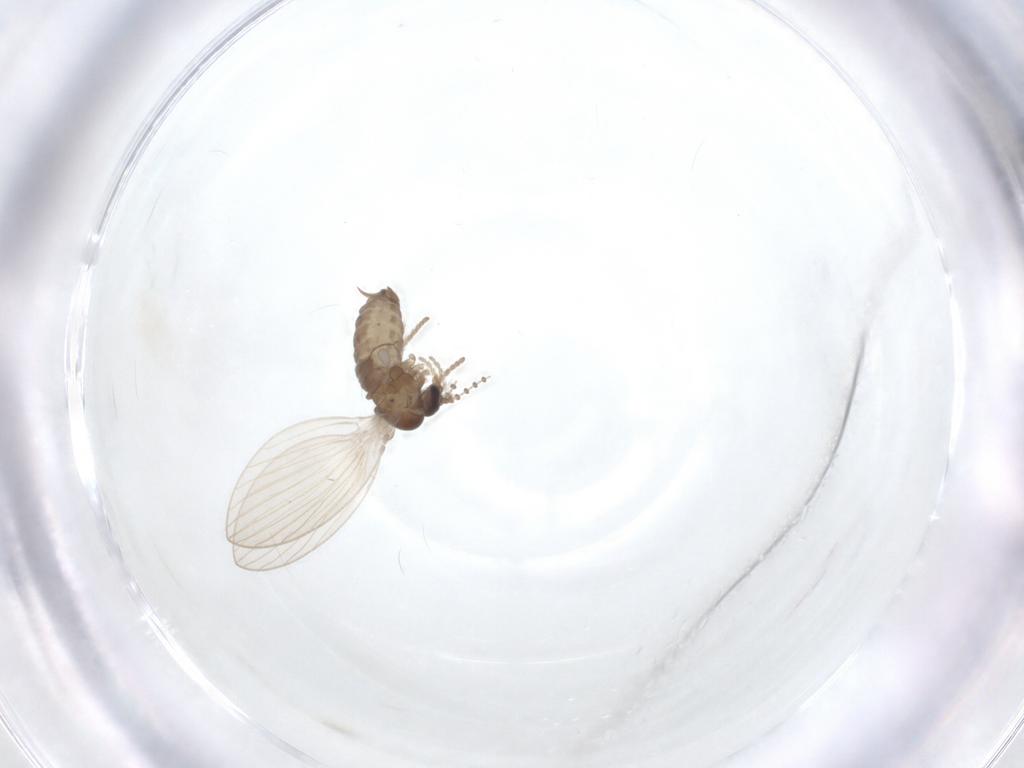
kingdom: Animalia
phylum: Arthropoda
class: Insecta
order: Diptera
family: Psychodidae
